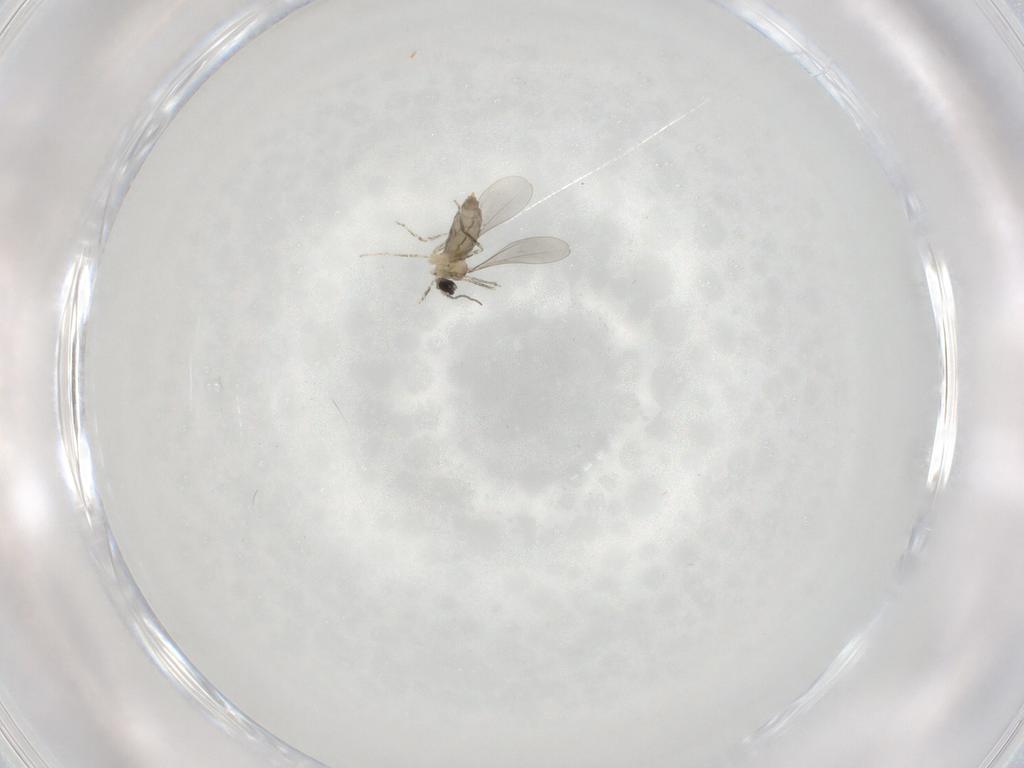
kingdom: Animalia
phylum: Arthropoda
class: Insecta
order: Diptera
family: Cecidomyiidae
